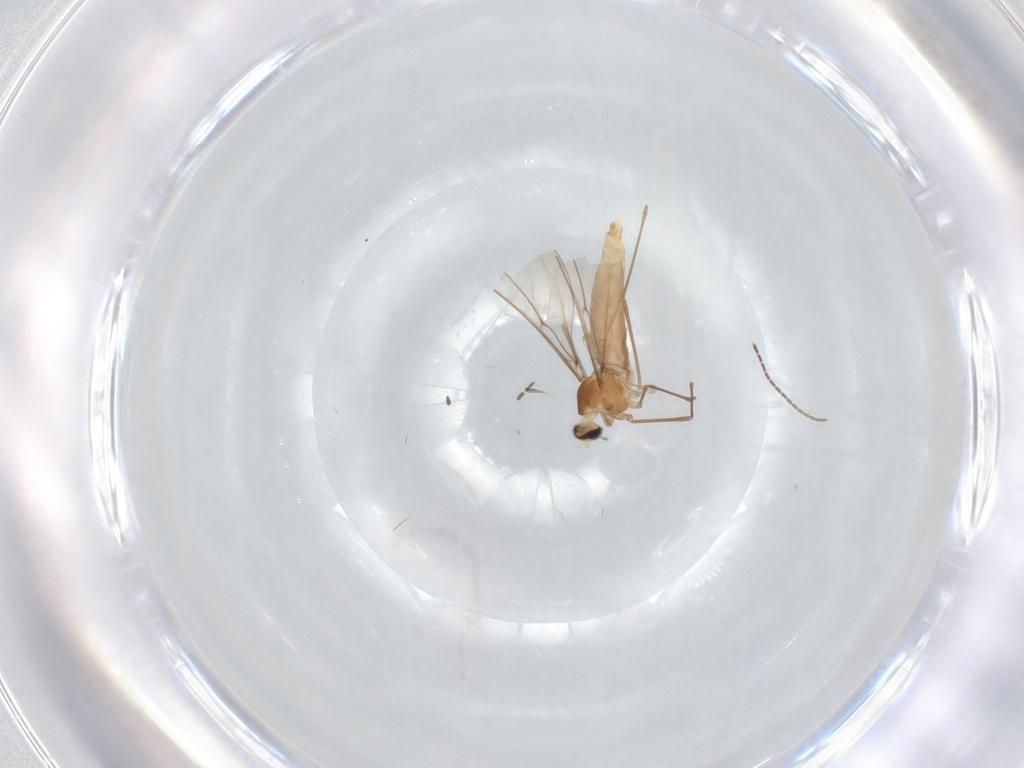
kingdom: Animalia
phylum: Arthropoda
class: Insecta
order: Diptera
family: Cecidomyiidae
